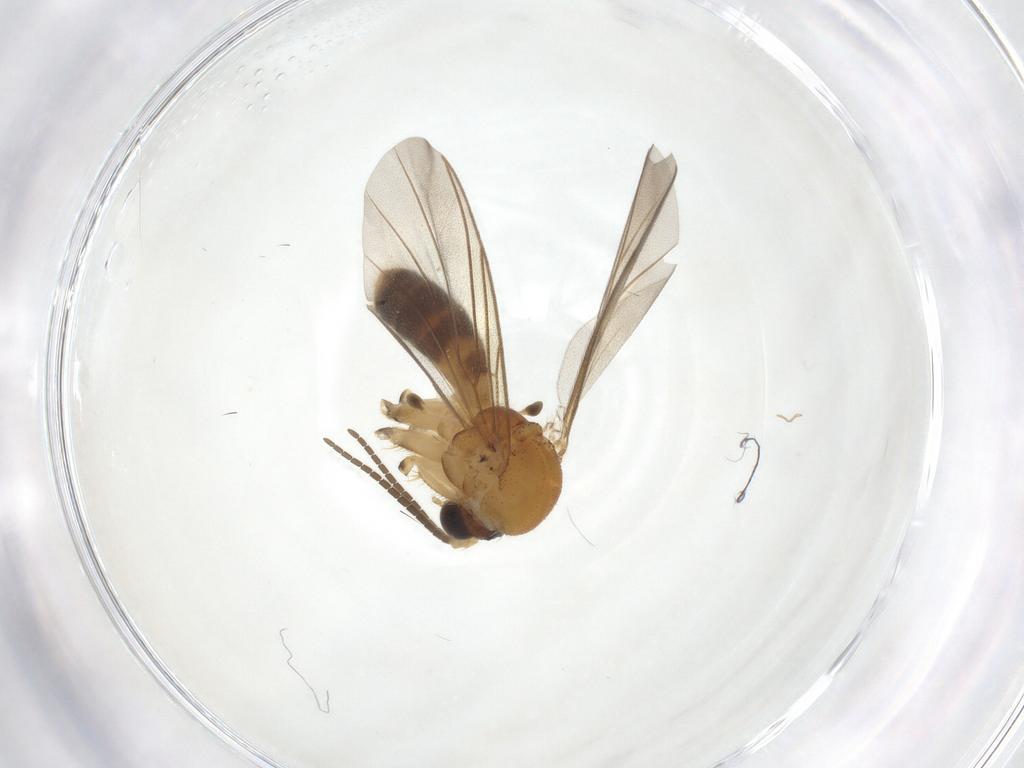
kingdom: Animalia
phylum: Arthropoda
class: Insecta
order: Diptera
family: Mycetophilidae
